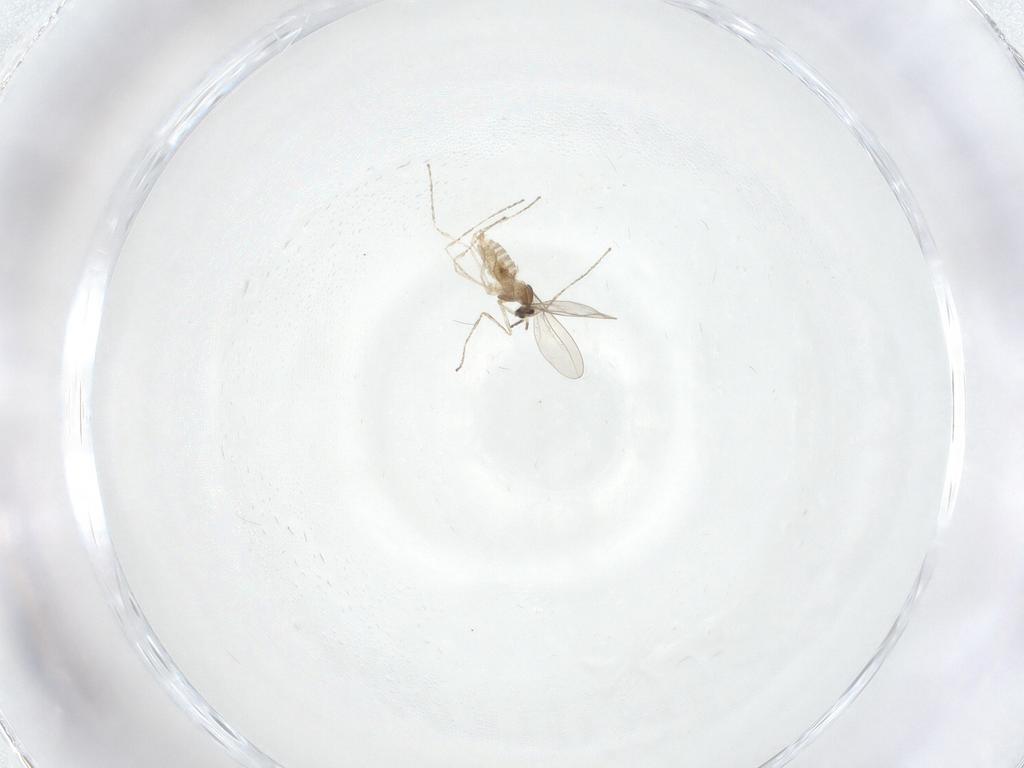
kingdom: Animalia
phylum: Arthropoda
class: Insecta
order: Diptera
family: Cecidomyiidae
